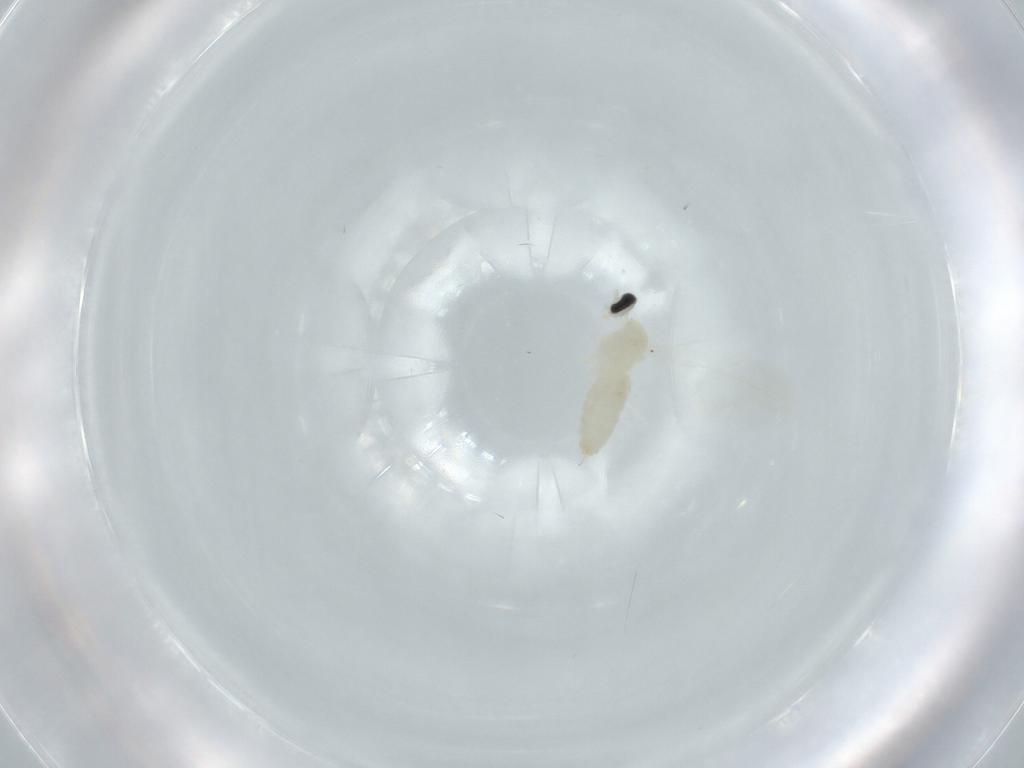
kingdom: Animalia
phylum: Arthropoda
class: Insecta
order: Diptera
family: Cecidomyiidae
